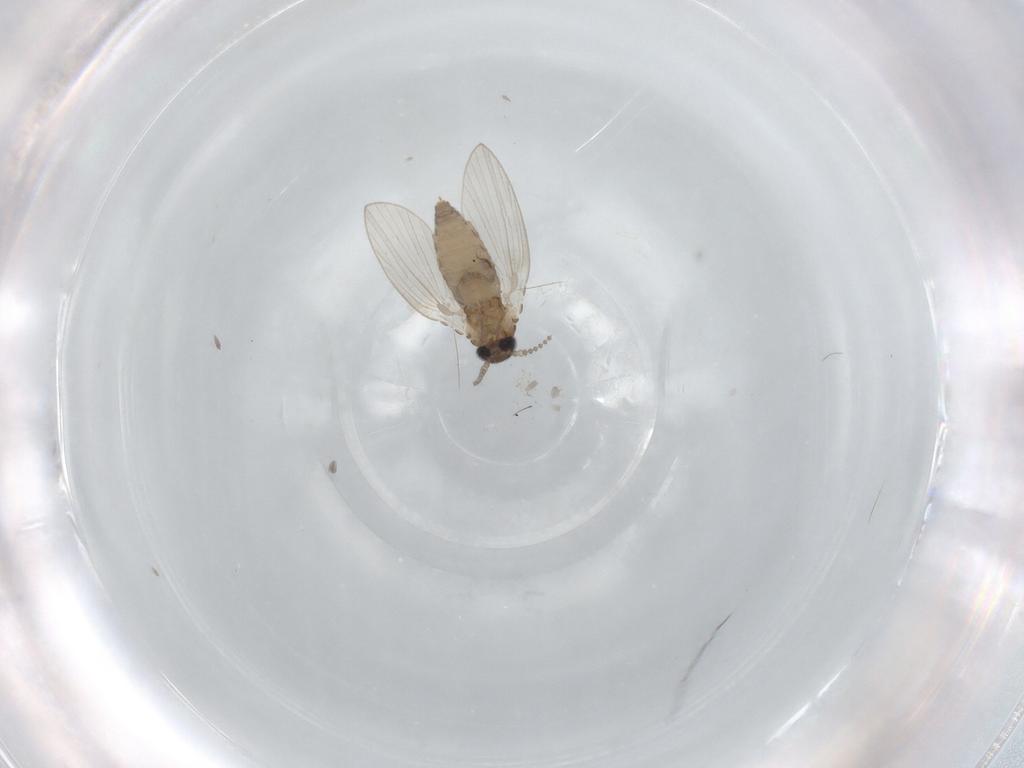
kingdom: Animalia
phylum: Arthropoda
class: Insecta
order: Diptera
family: Psychodidae
